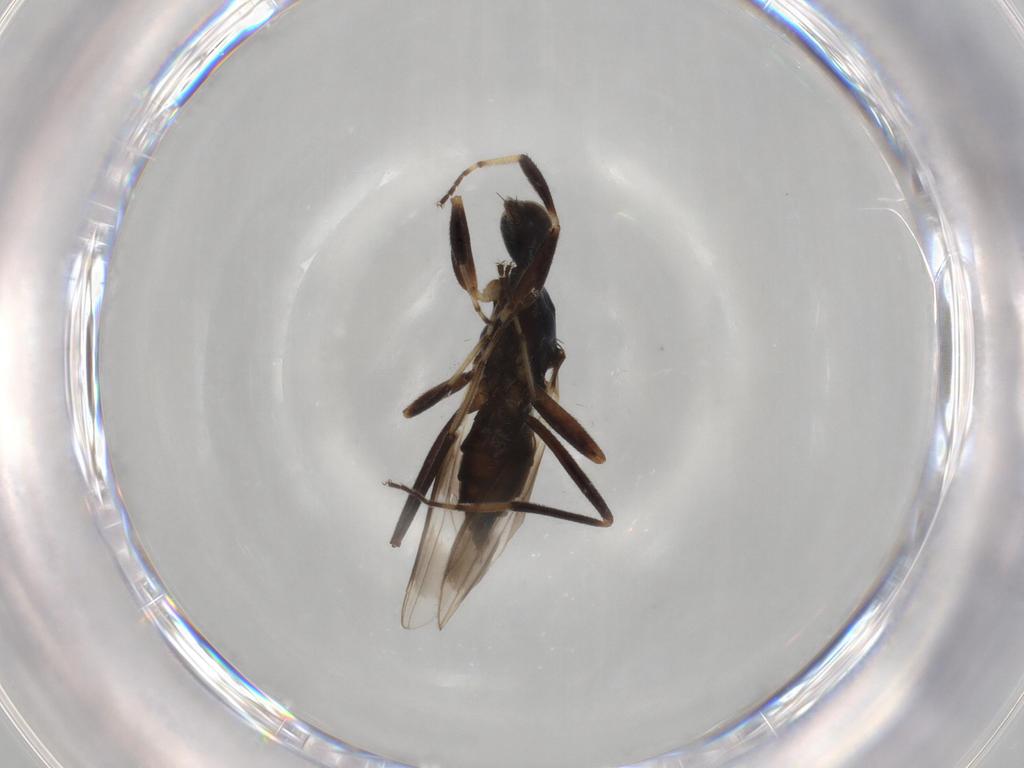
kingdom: Animalia
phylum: Arthropoda
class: Insecta
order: Diptera
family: Hybotidae
